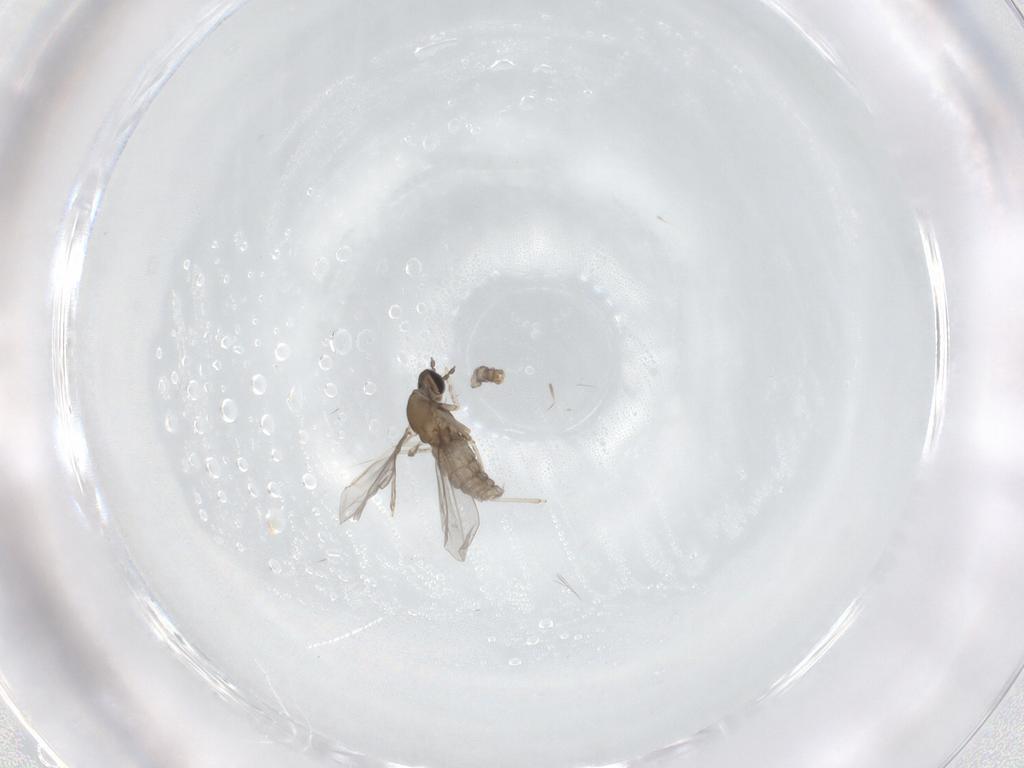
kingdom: Animalia
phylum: Arthropoda
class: Insecta
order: Diptera
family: Cecidomyiidae
